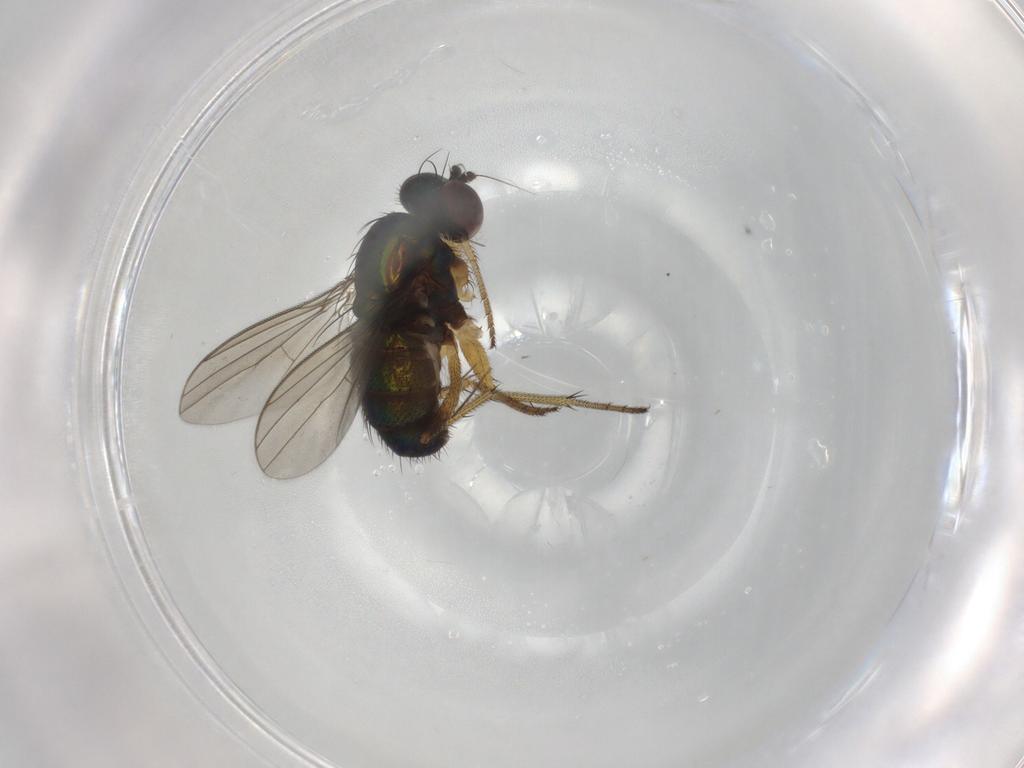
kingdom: Animalia
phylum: Arthropoda
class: Insecta
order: Diptera
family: Dolichopodidae
